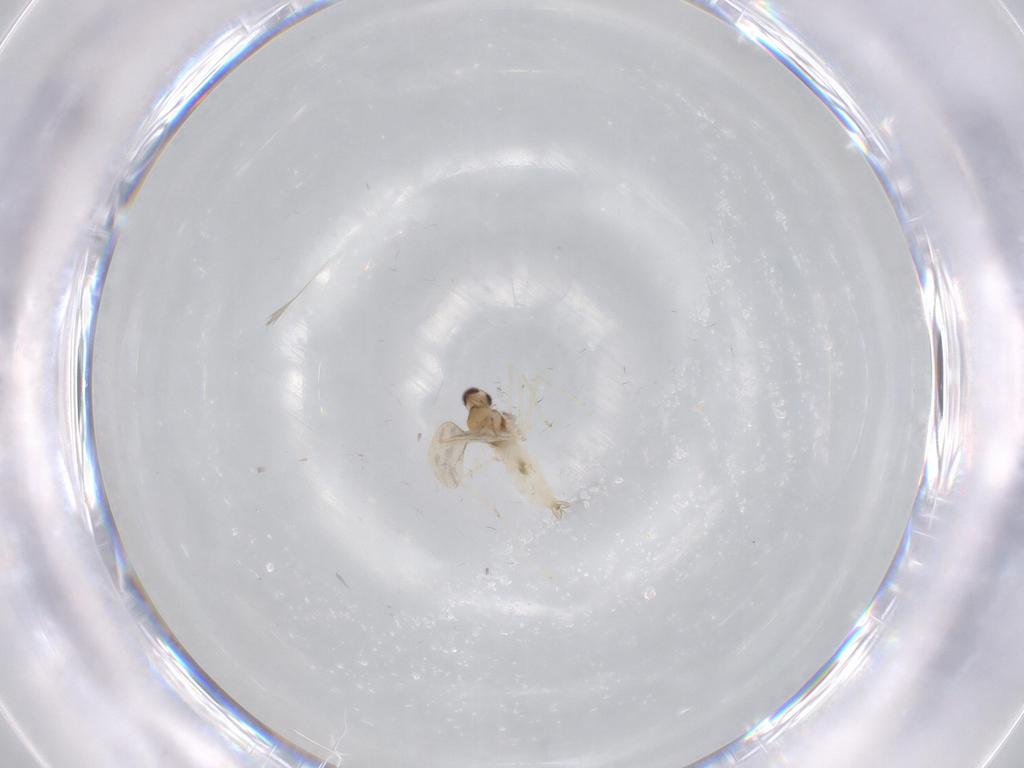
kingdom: Animalia
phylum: Arthropoda
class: Insecta
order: Diptera
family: Cecidomyiidae
